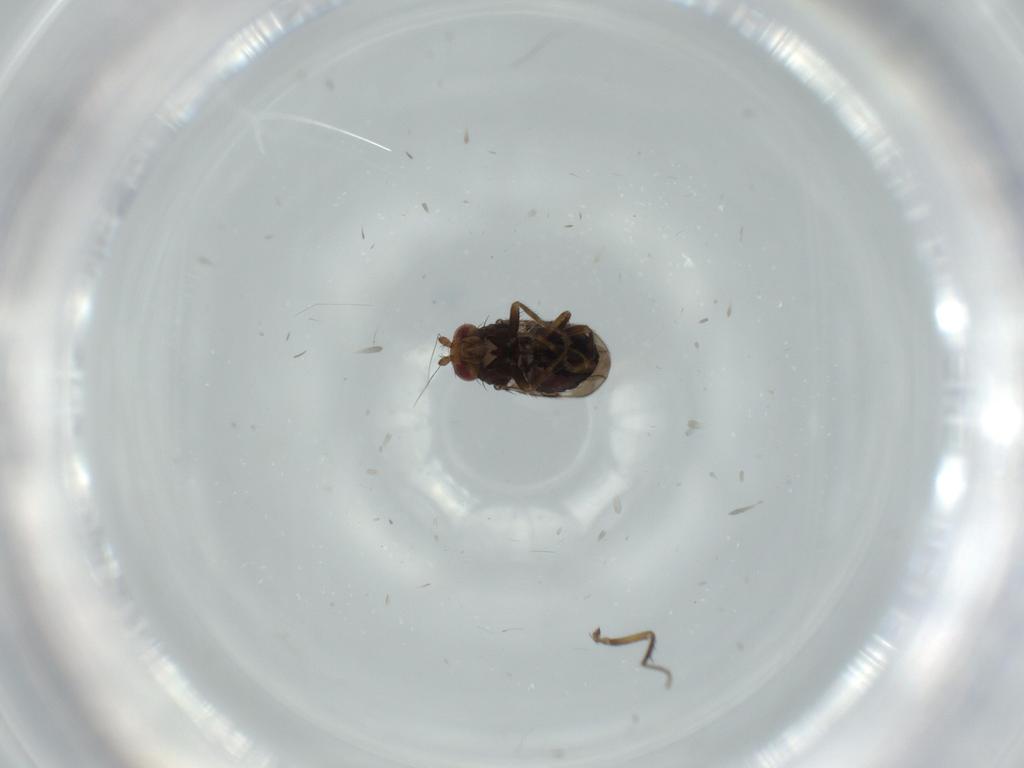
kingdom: Animalia
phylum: Arthropoda
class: Insecta
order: Diptera
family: Sphaeroceridae
